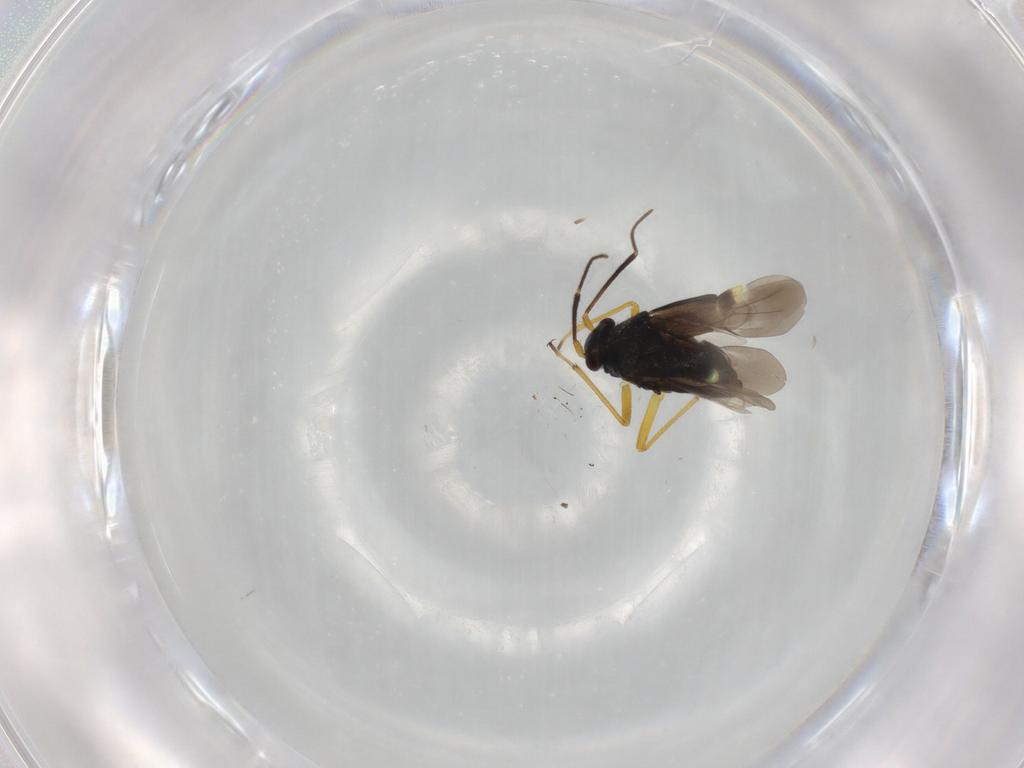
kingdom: Animalia
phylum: Arthropoda
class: Insecta
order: Hemiptera
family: Miridae
